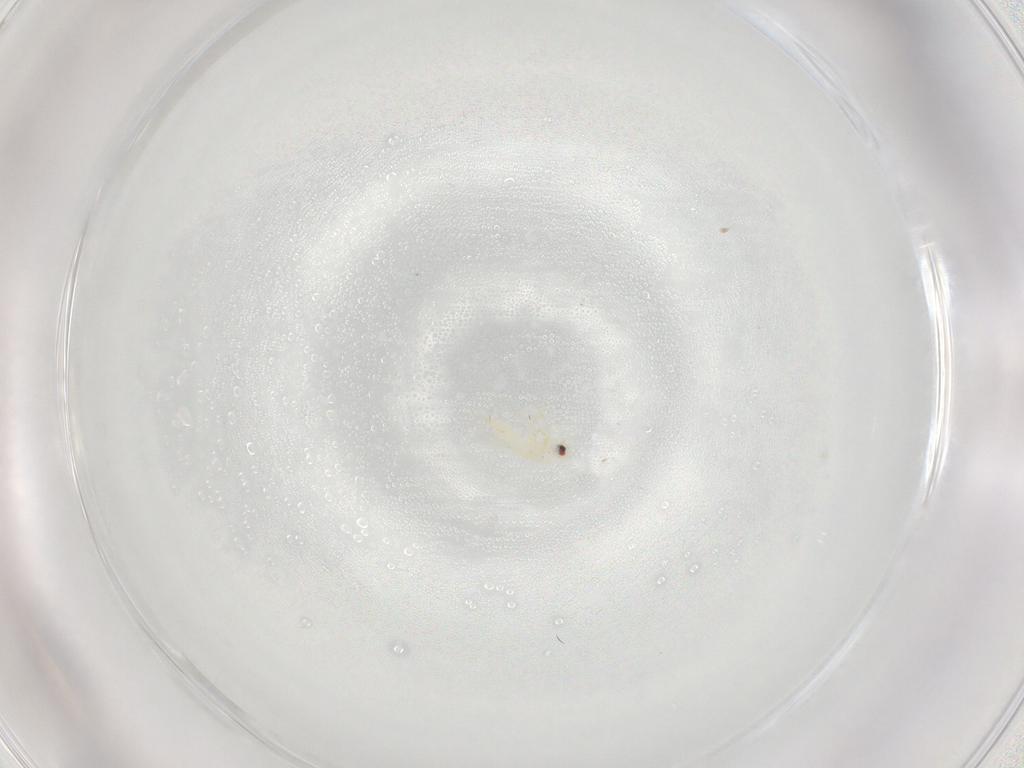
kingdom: Animalia
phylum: Arthropoda
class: Insecta
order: Hemiptera
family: Cicadellidae
